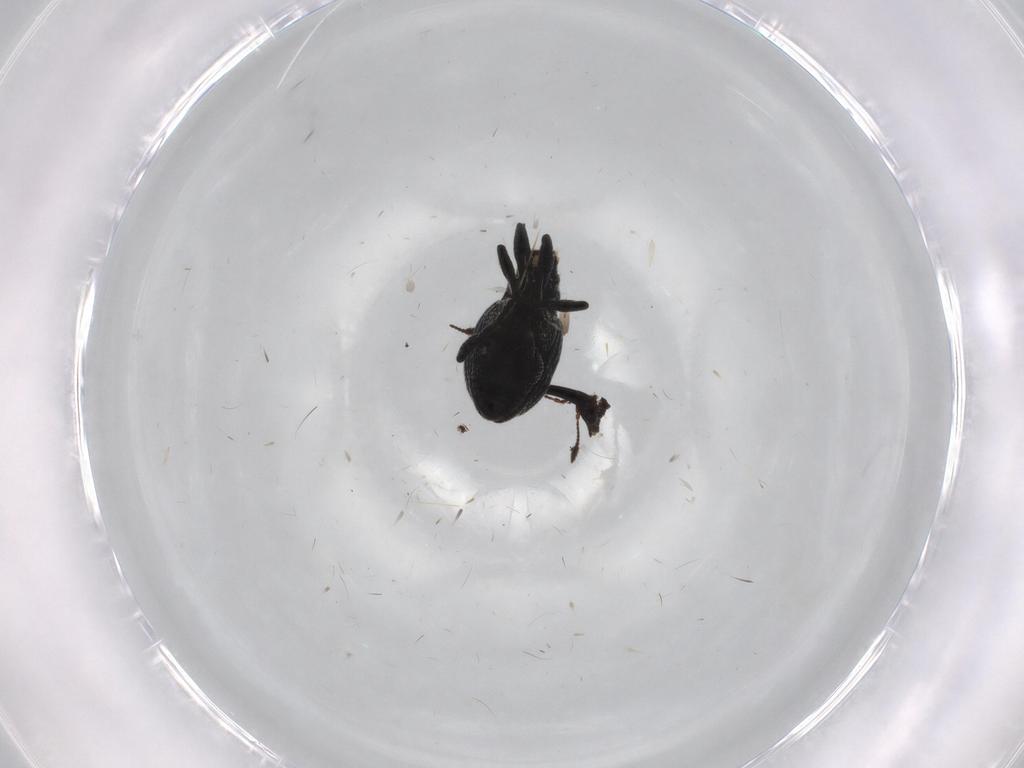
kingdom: Animalia
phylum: Arthropoda
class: Insecta
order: Coleoptera
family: Brentidae
